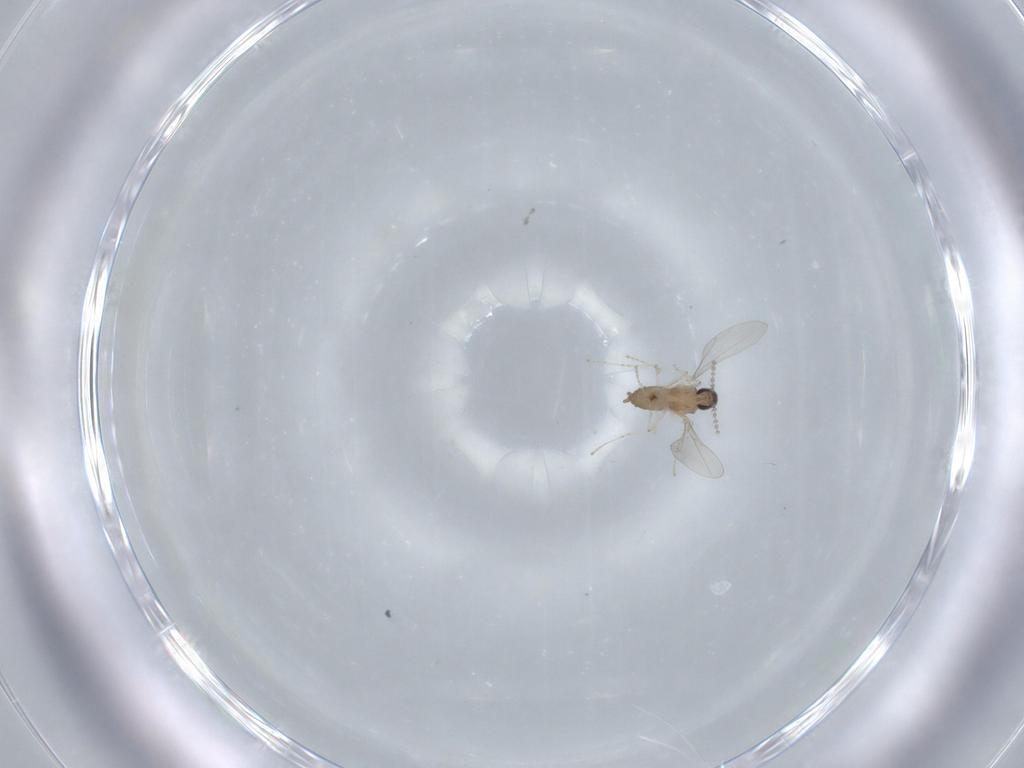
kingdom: Animalia
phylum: Arthropoda
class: Insecta
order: Diptera
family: Cecidomyiidae
